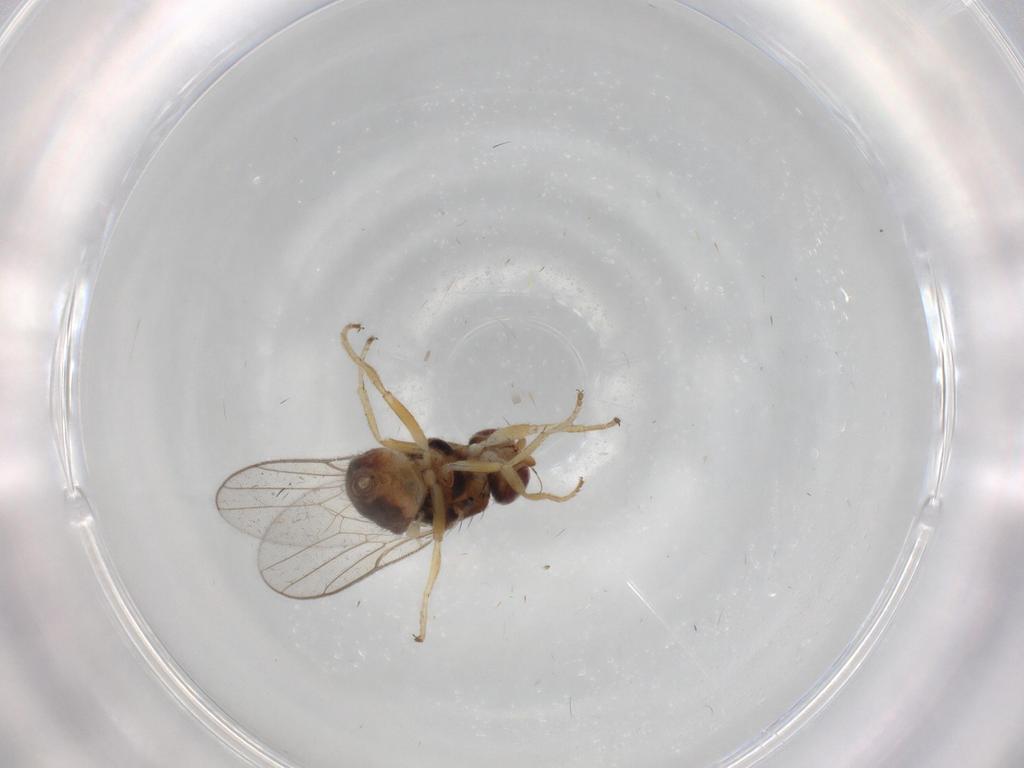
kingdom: Animalia
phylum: Arthropoda
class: Insecta
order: Diptera
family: Chloropidae
